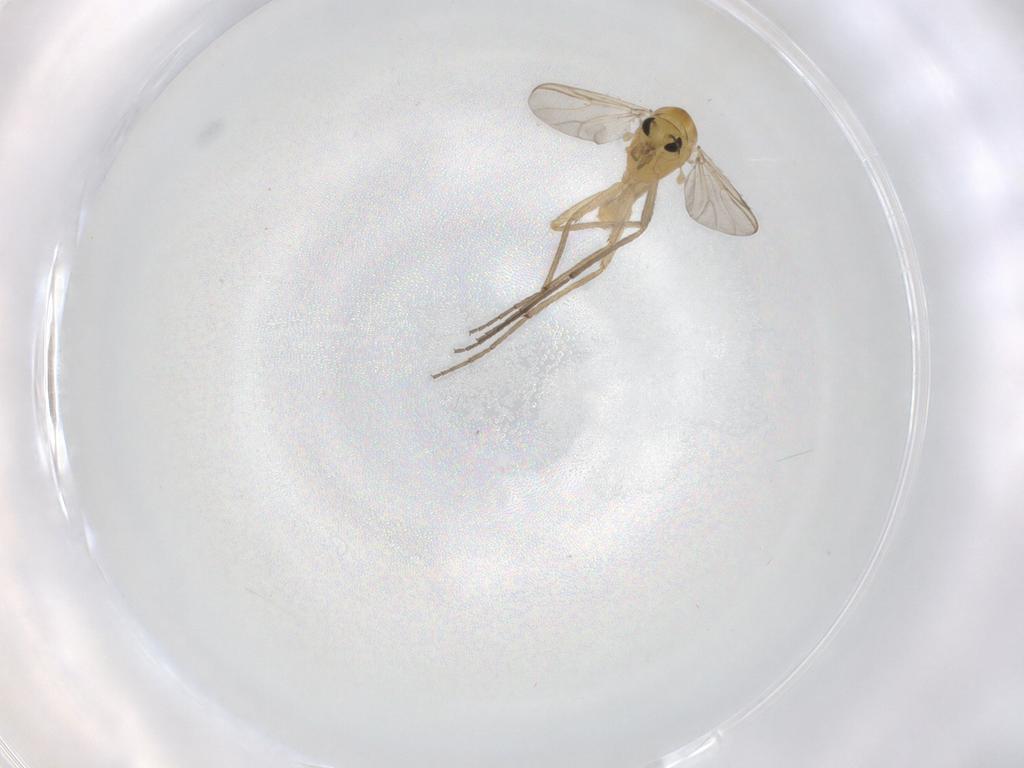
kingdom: Animalia
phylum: Arthropoda
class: Insecta
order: Diptera
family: Chironomidae
